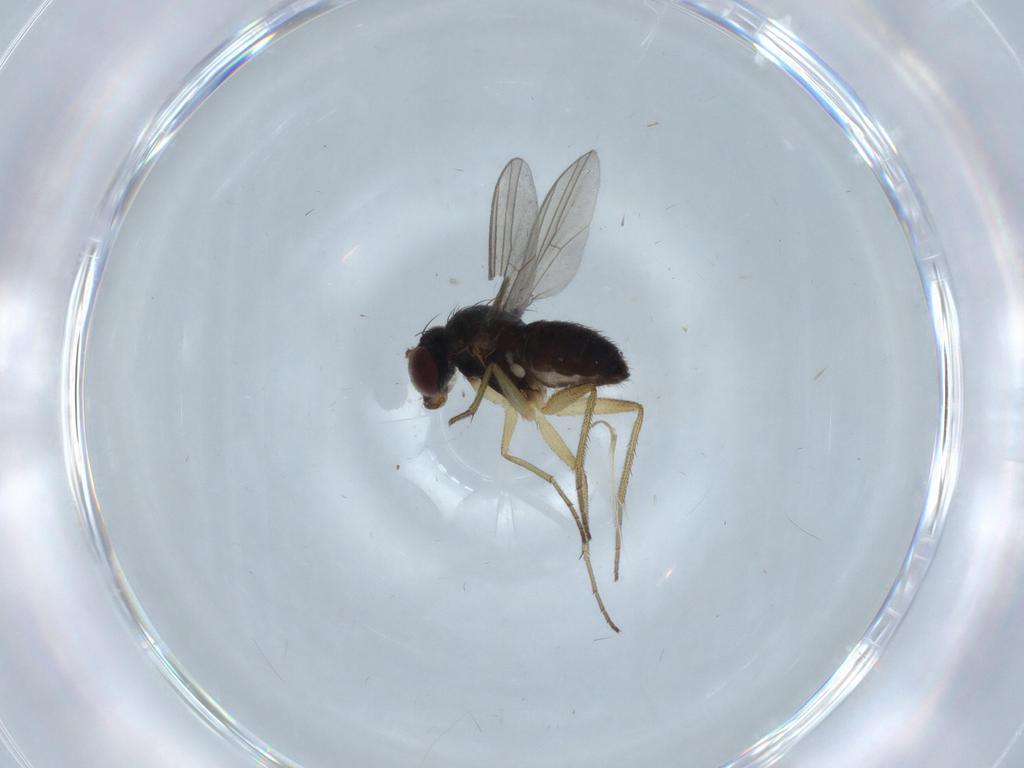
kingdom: Animalia
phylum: Arthropoda
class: Insecta
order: Diptera
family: Dolichopodidae
